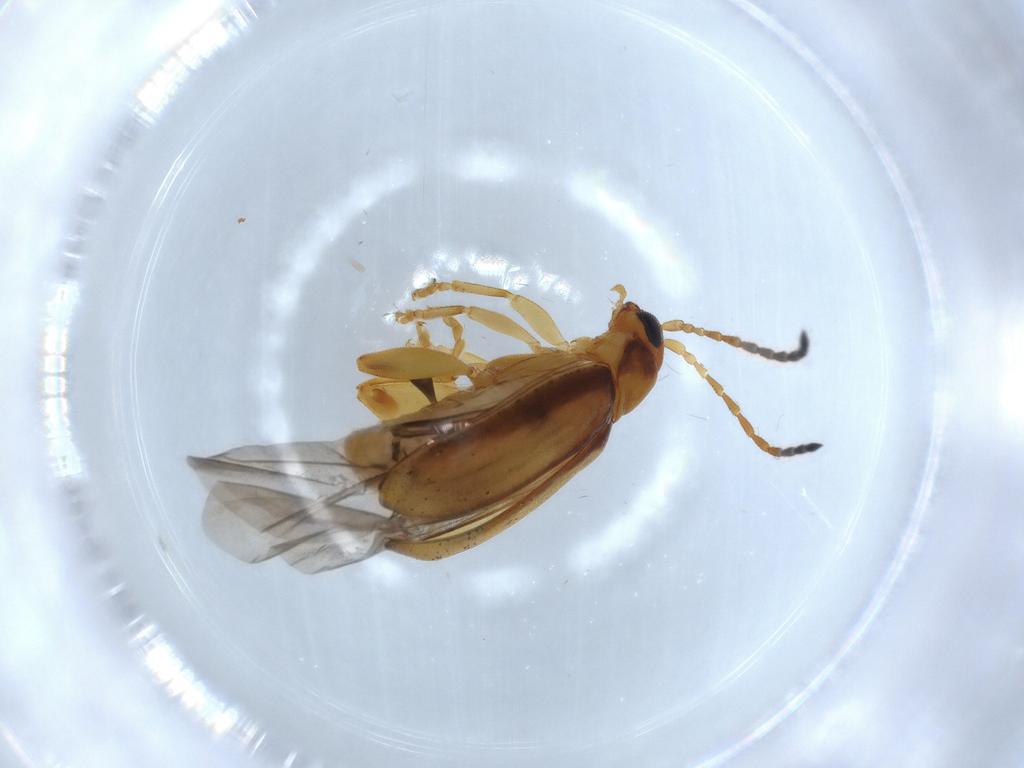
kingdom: Animalia
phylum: Arthropoda
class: Insecta
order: Coleoptera
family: Chrysomelidae
